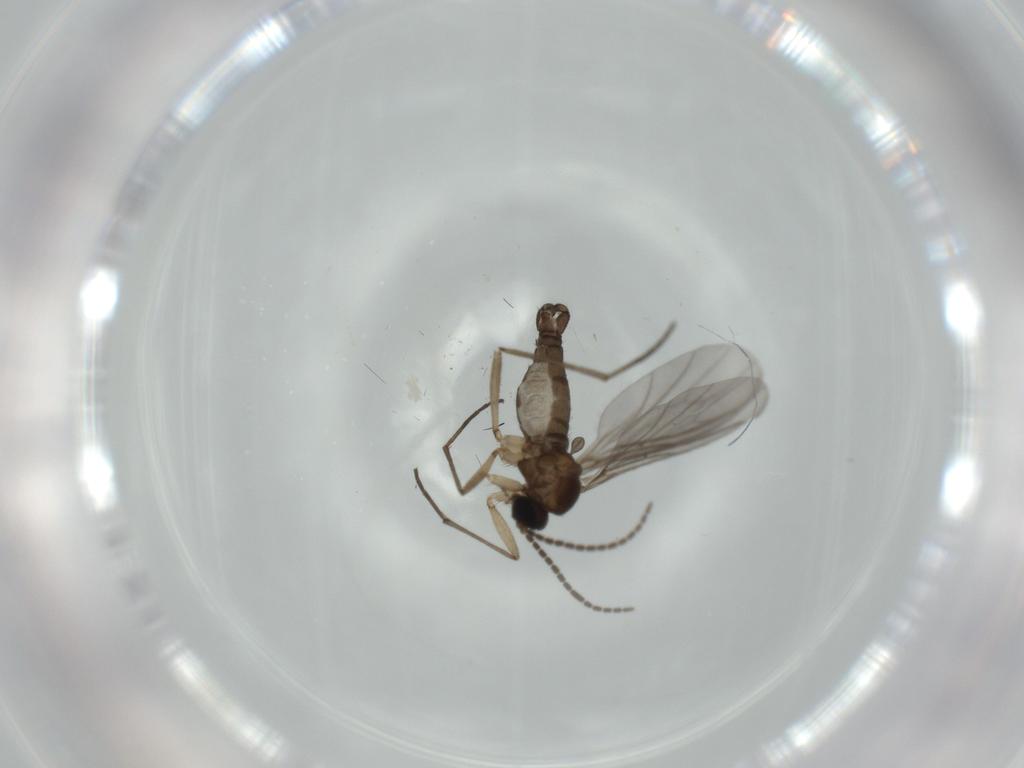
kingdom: Animalia
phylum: Arthropoda
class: Insecta
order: Diptera
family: Sciaridae
